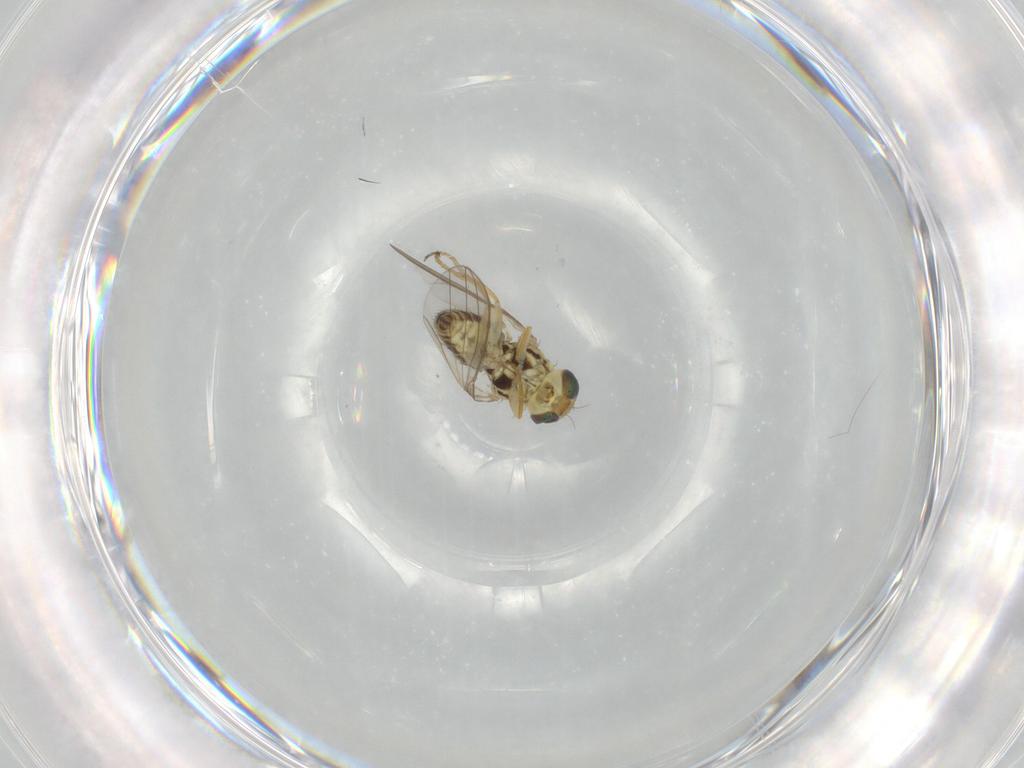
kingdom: Animalia
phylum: Arthropoda
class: Insecta
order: Diptera
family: Chyromyidae
